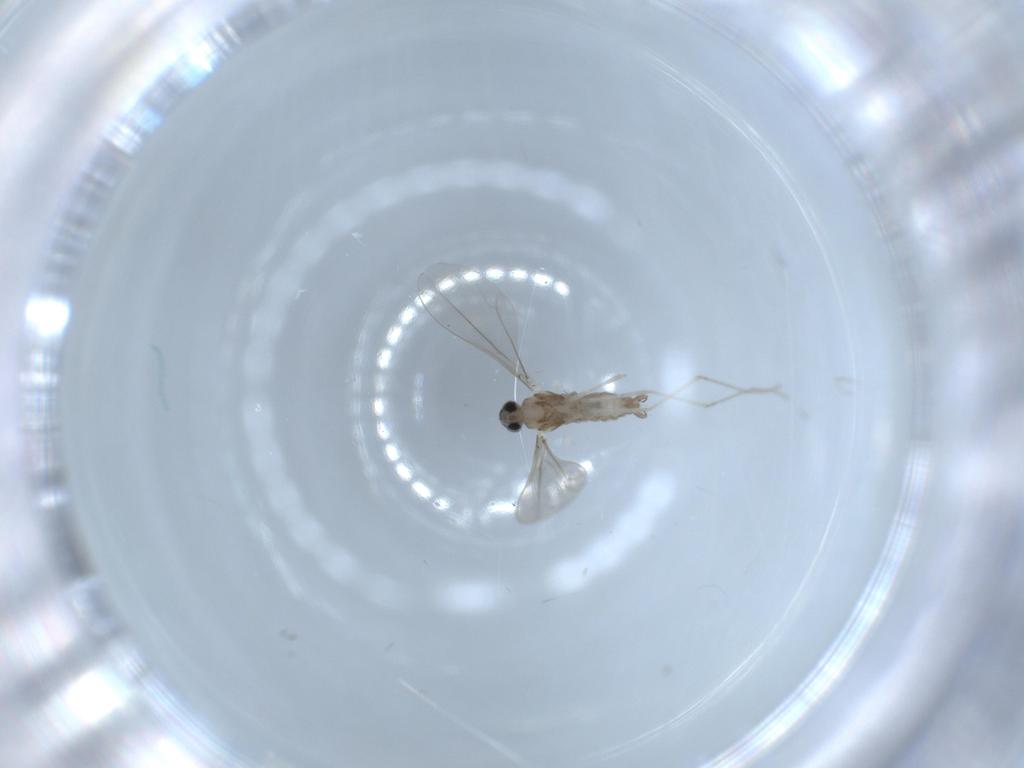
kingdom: Animalia
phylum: Arthropoda
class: Insecta
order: Diptera
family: Cecidomyiidae
